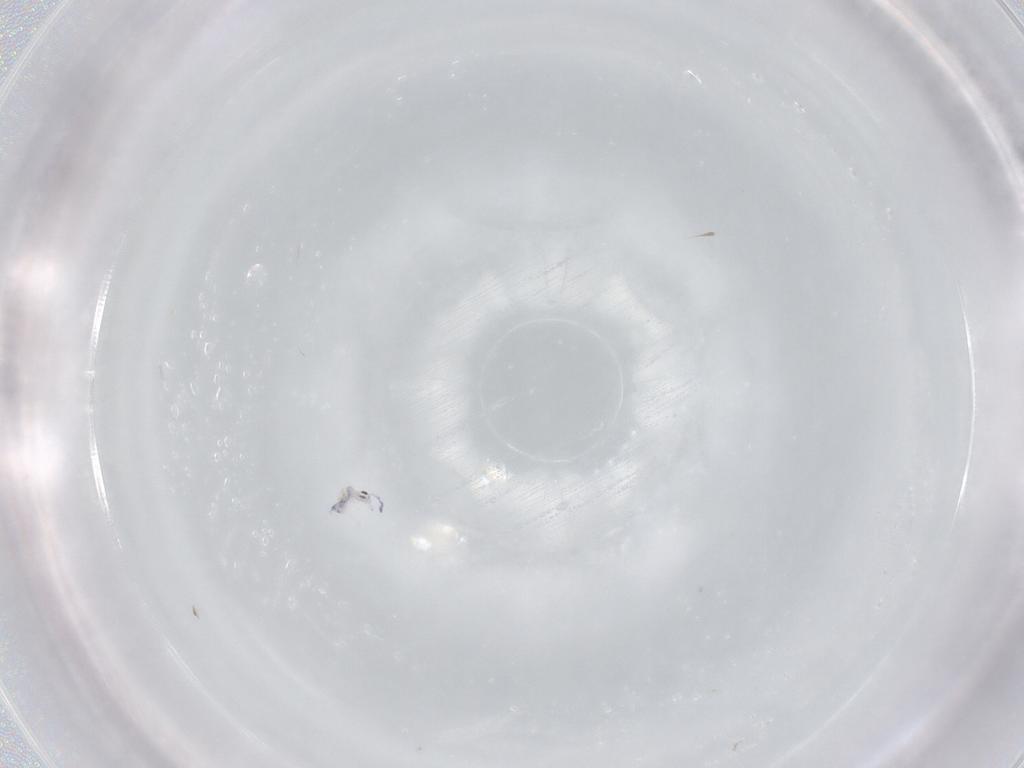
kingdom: Animalia
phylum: Arthropoda
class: Collembola
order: Entomobryomorpha
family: Entomobryidae
